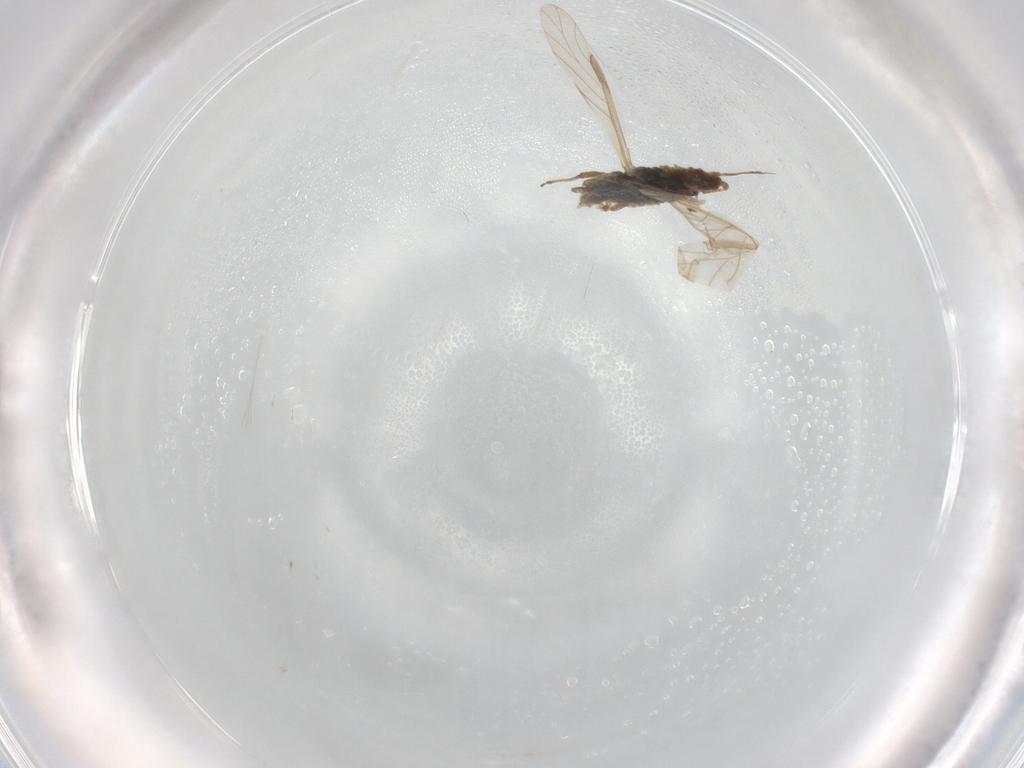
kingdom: Animalia
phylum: Arthropoda
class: Insecta
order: Hemiptera
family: Aphididae
